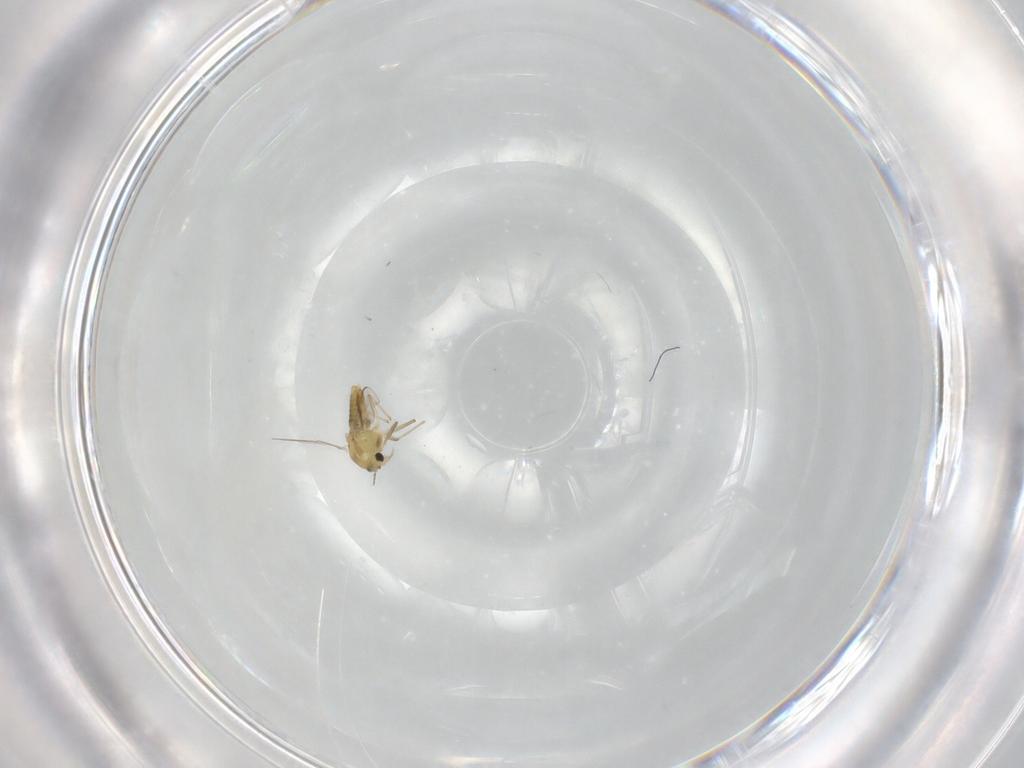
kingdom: Animalia
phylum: Arthropoda
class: Insecta
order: Diptera
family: Chironomidae
